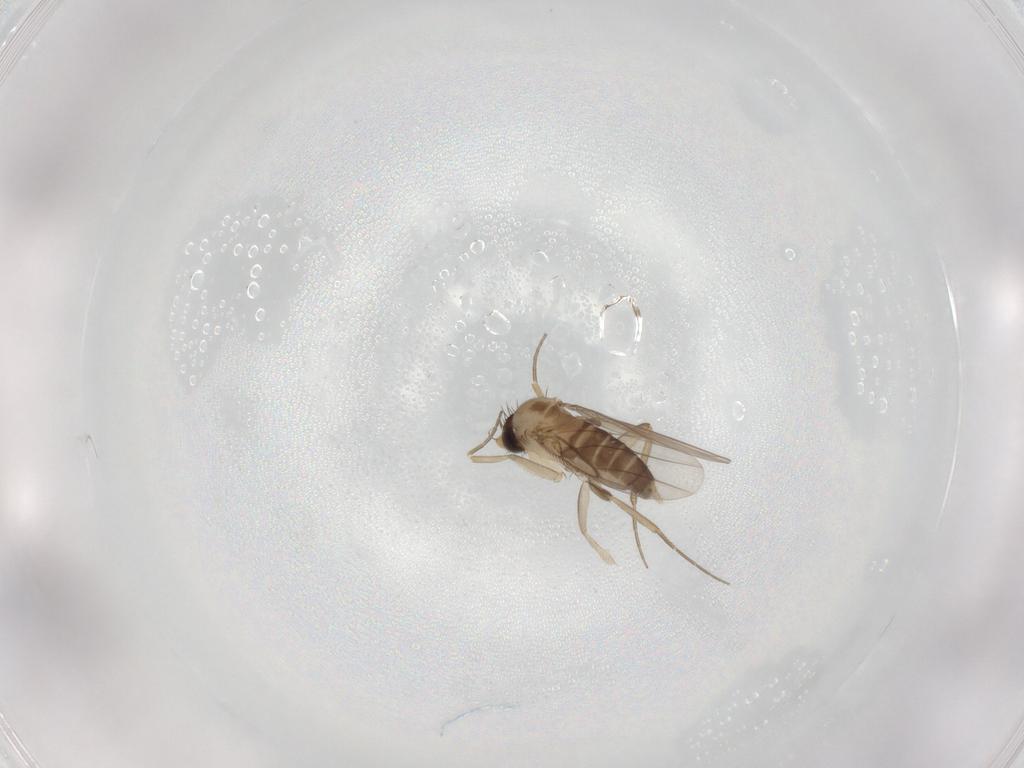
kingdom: Animalia
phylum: Arthropoda
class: Insecta
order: Diptera
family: Phoridae
